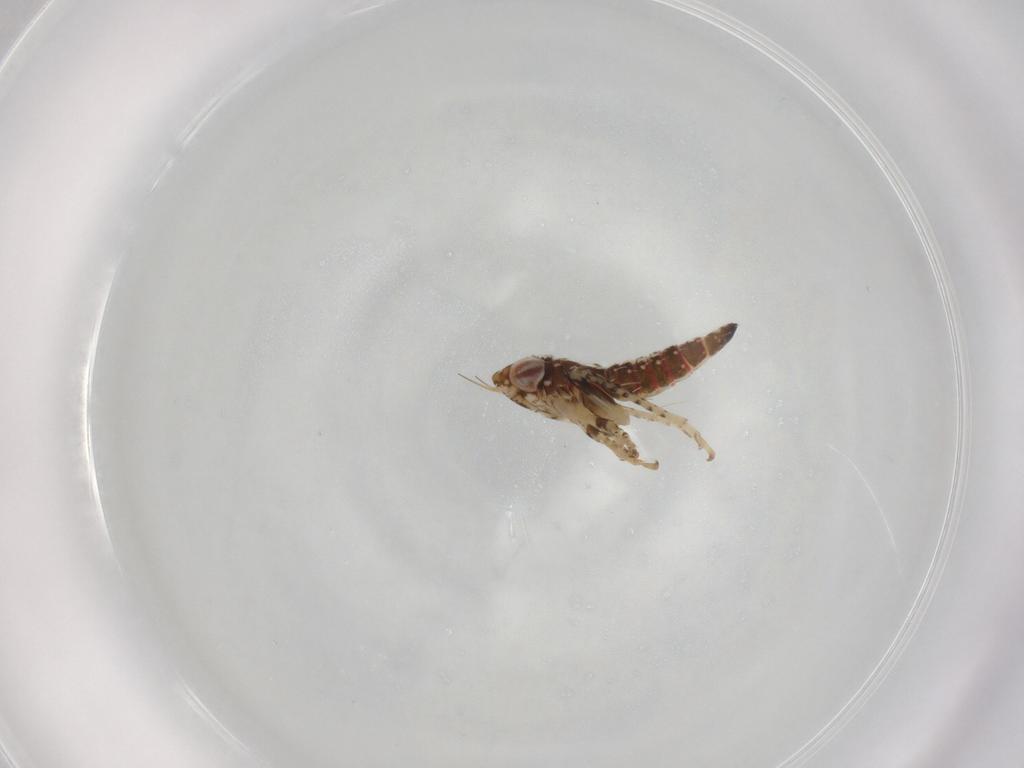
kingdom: Animalia
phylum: Arthropoda
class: Insecta
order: Hemiptera
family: Cicadellidae
